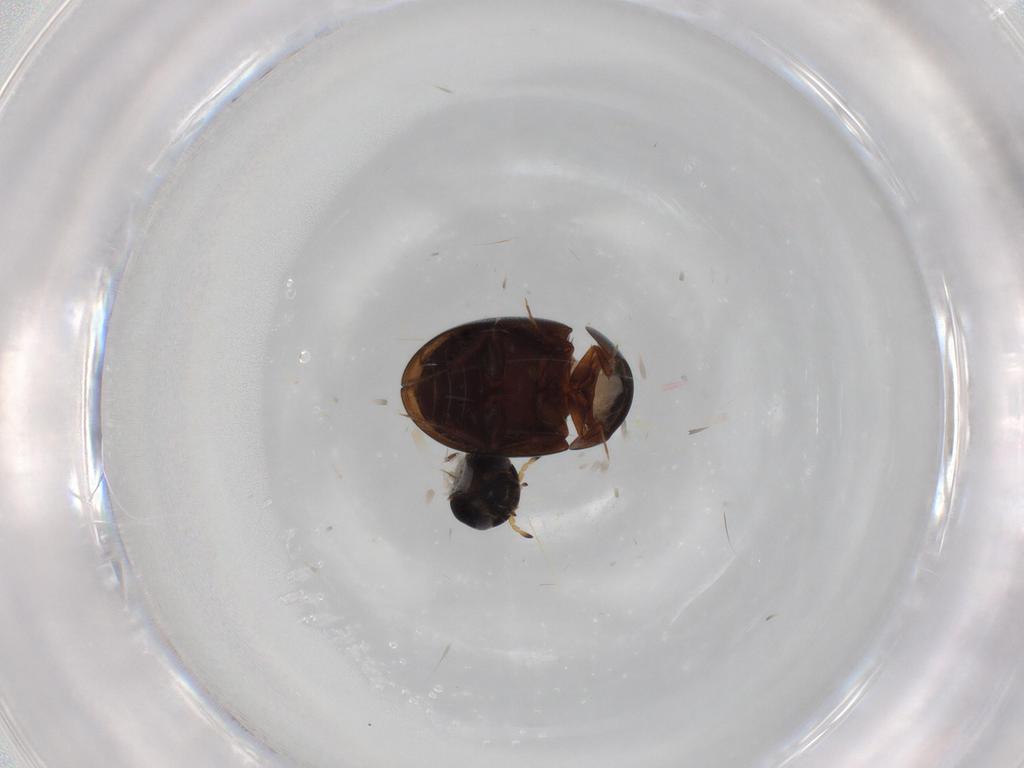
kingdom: Animalia
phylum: Arthropoda
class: Insecta
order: Coleoptera
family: Hydrophilidae
